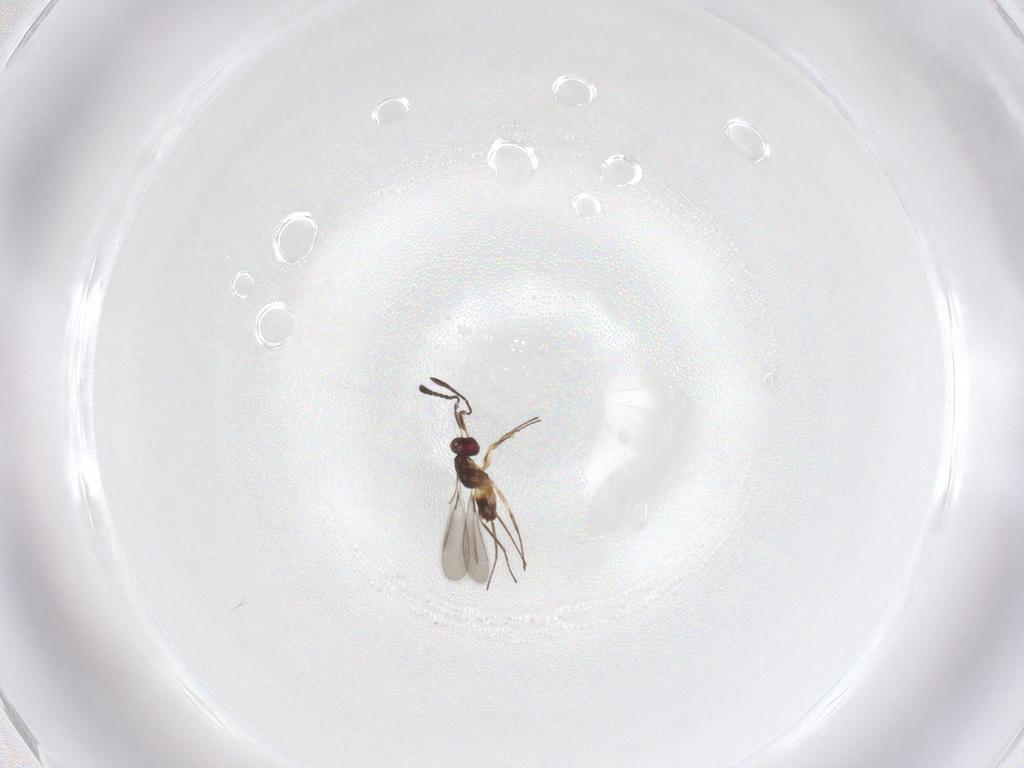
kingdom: Animalia
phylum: Arthropoda
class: Insecta
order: Hymenoptera
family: Mymaridae
